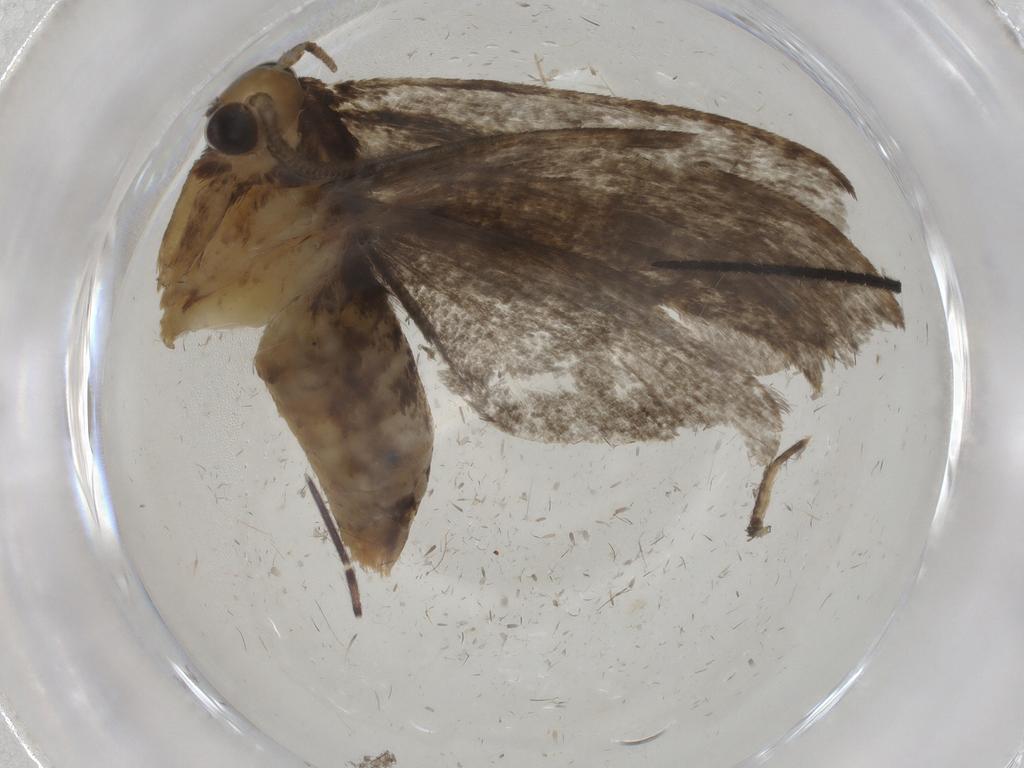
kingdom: Animalia
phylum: Arthropoda
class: Insecta
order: Lepidoptera
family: Tineidae
